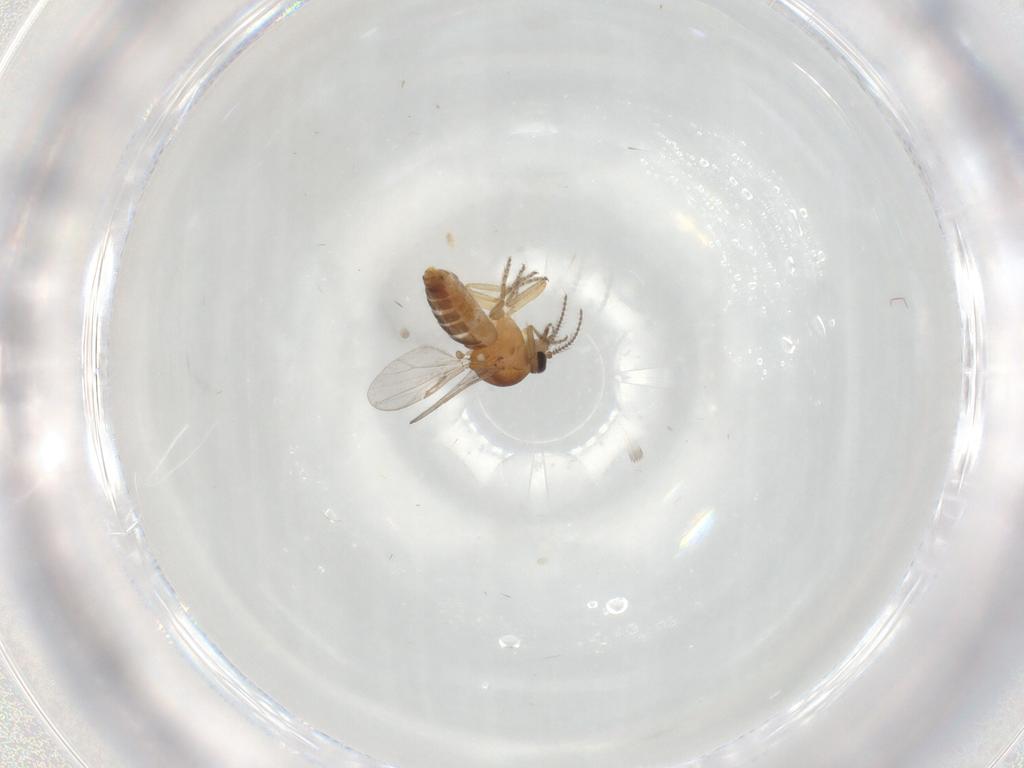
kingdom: Animalia
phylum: Arthropoda
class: Insecta
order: Diptera
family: Ceratopogonidae
